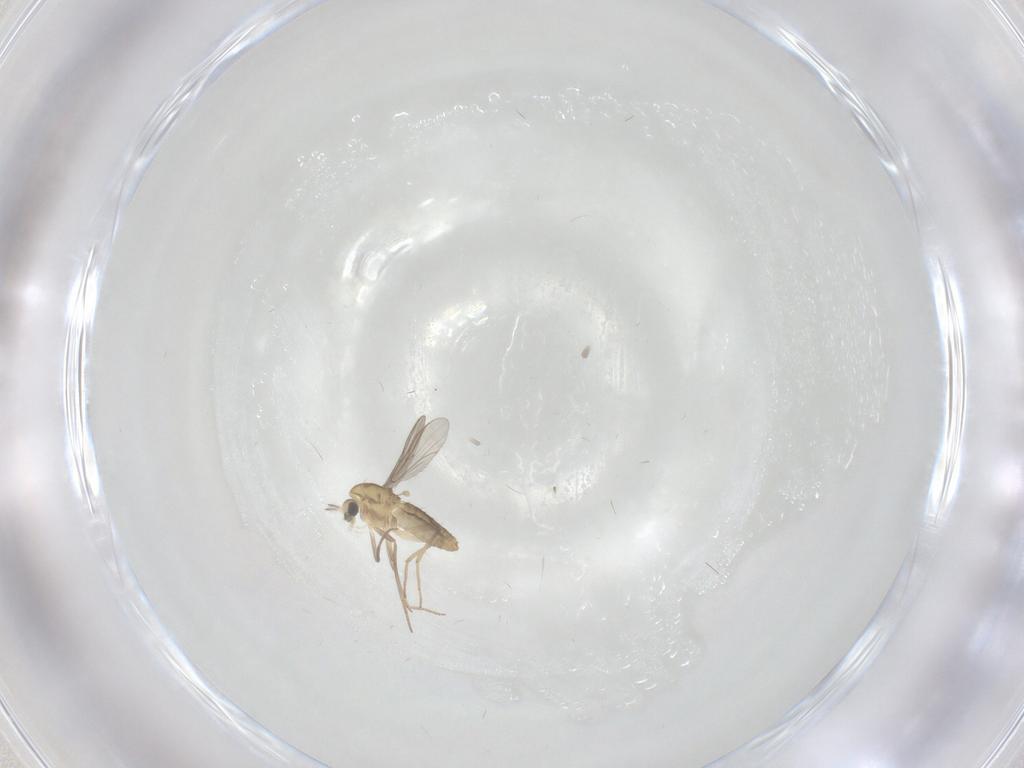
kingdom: Animalia
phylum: Arthropoda
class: Insecta
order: Diptera
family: Chironomidae
